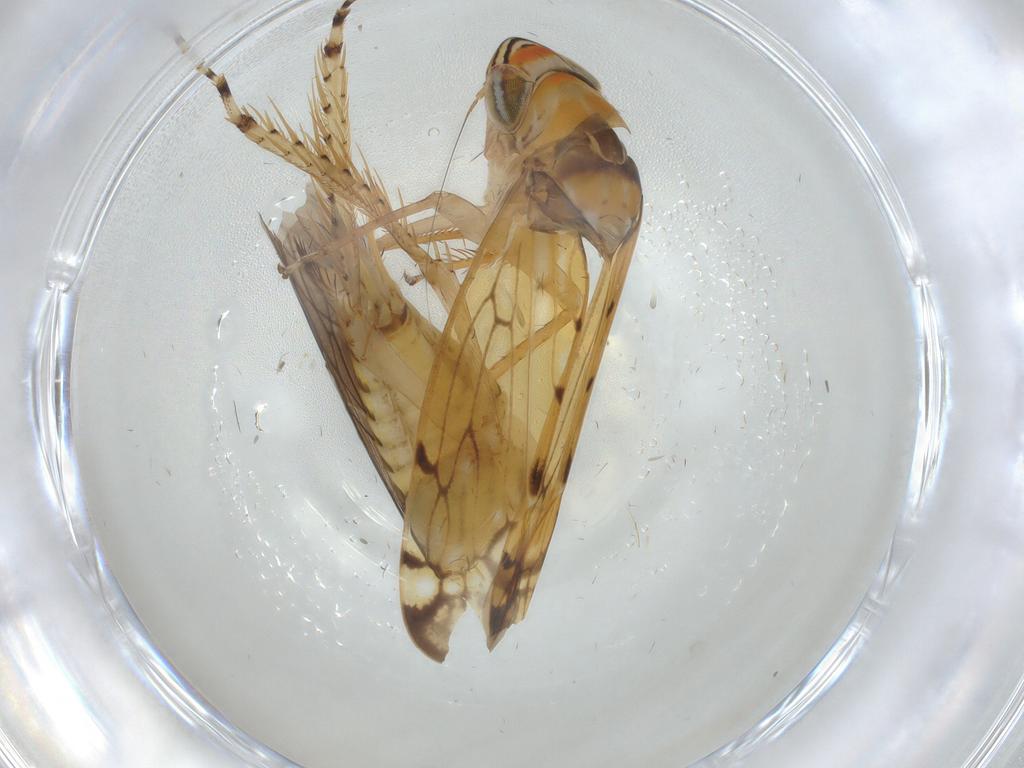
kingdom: Animalia
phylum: Arthropoda
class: Insecta
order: Hemiptera
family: Cicadellidae
